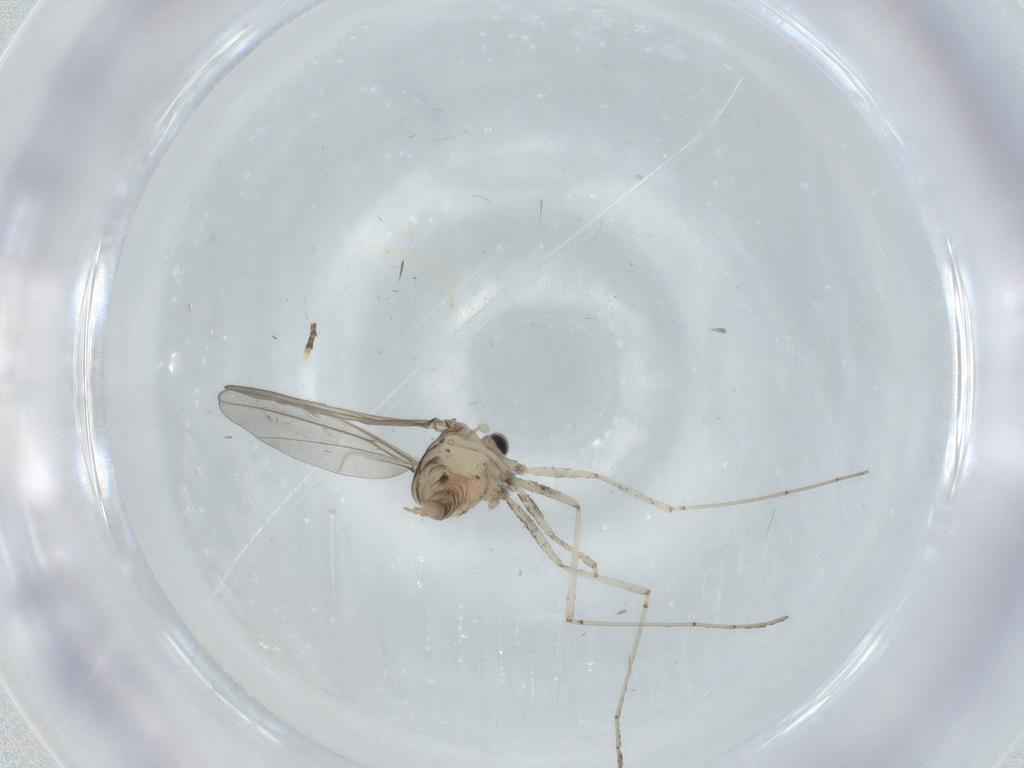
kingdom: Animalia
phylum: Arthropoda
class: Insecta
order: Diptera
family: Cecidomyiidae
